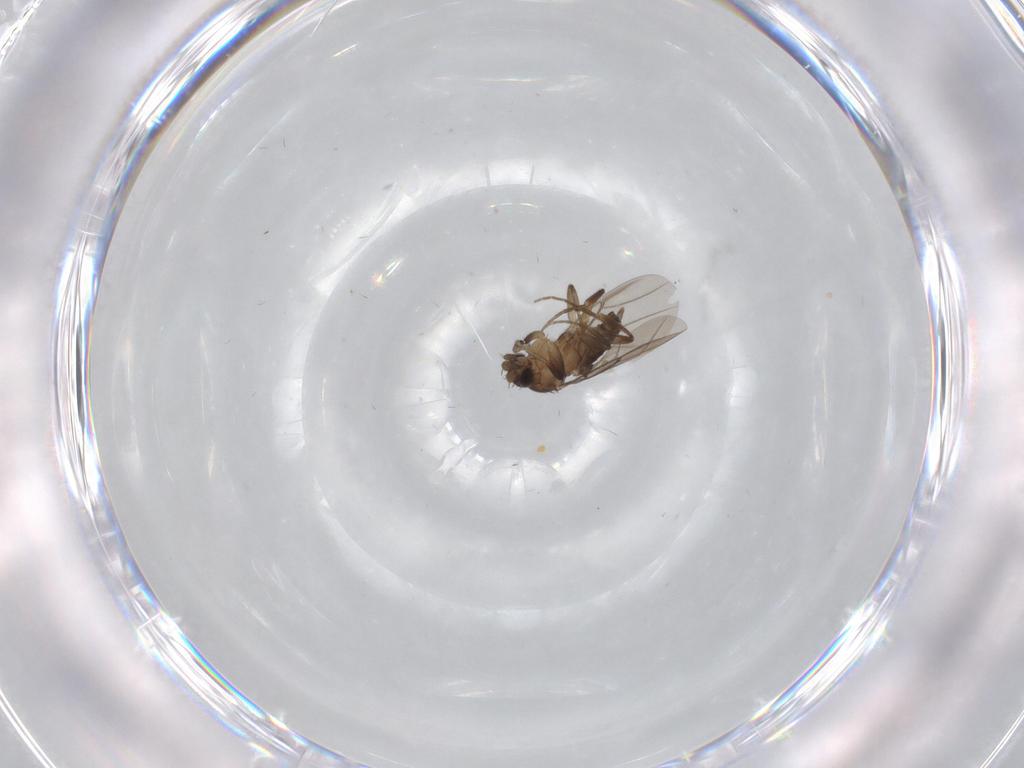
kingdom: Animalia
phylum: Arthropoda
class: Insecta
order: Diptera
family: Phoridae
